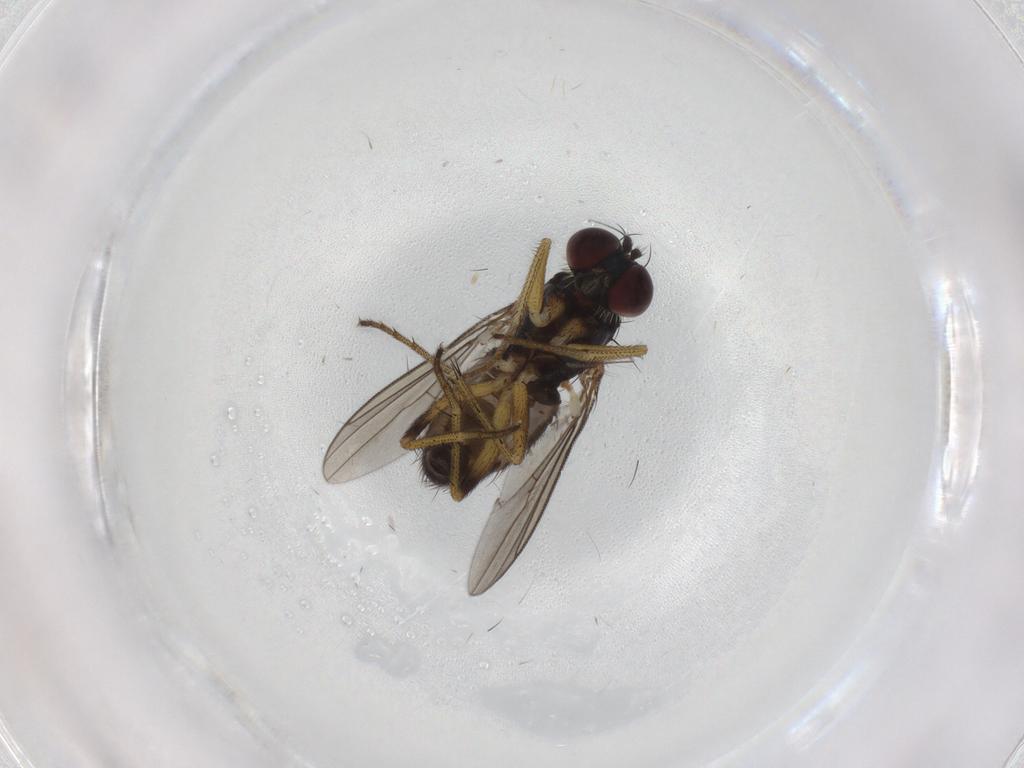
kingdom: Animalia
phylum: Arthropoda
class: Insecta
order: Diptera
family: Dolichopodidae
